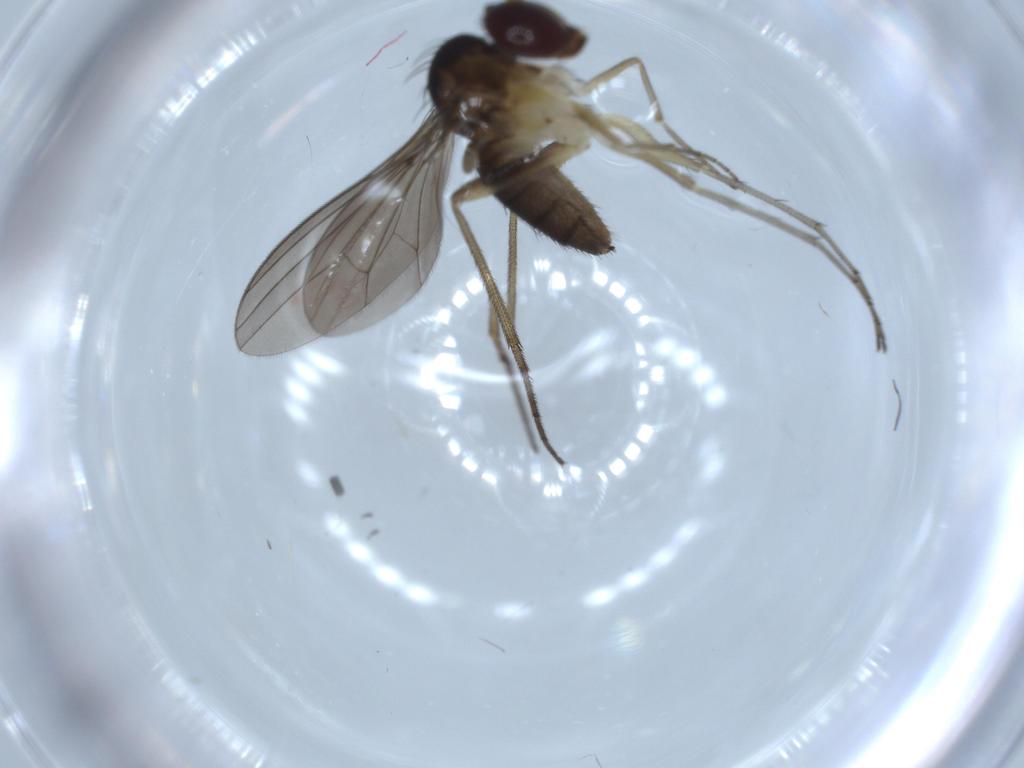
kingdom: Animalia
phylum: Arthropoda
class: Insecta
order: Diptera
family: Dolichopodidae
